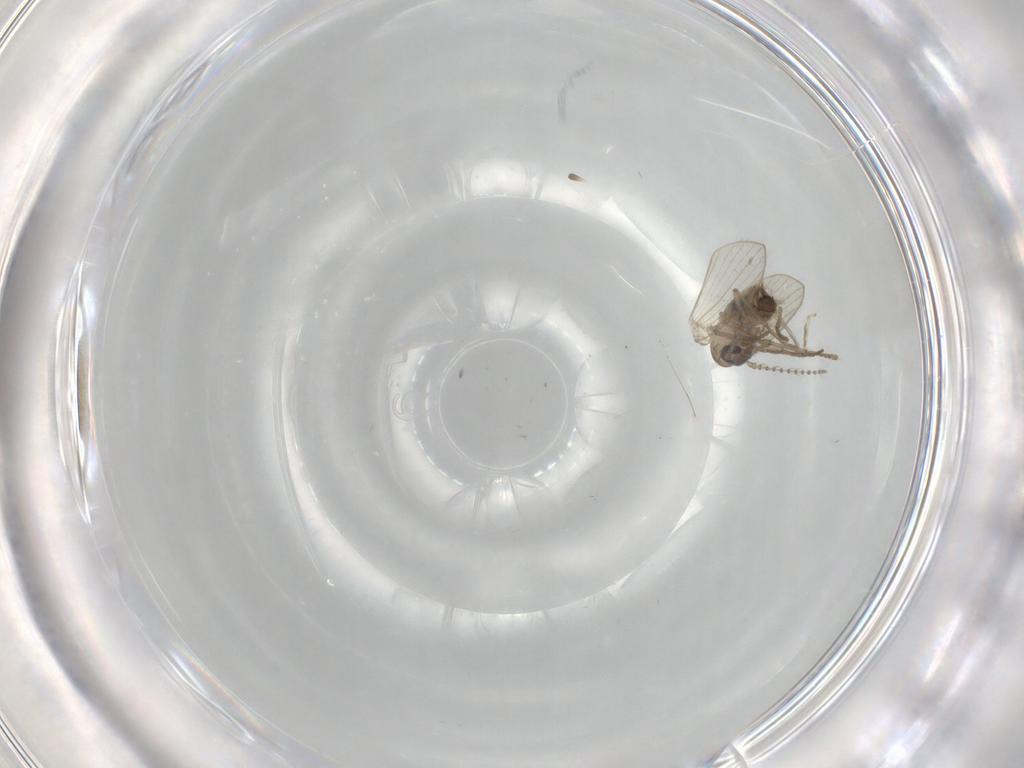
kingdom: Animalia
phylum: Arthropoda
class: Insecta
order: Diptera
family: Psychodidae
